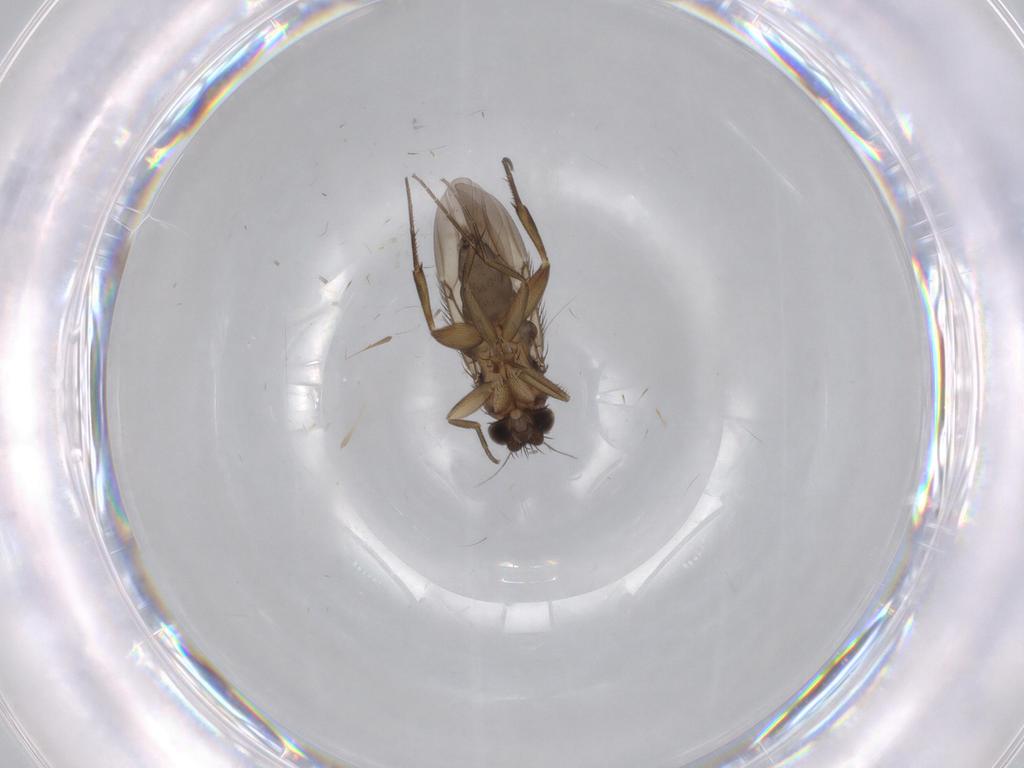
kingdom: Animalia
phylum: Arthropoda
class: Insecta
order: Diptera
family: Phoridae
